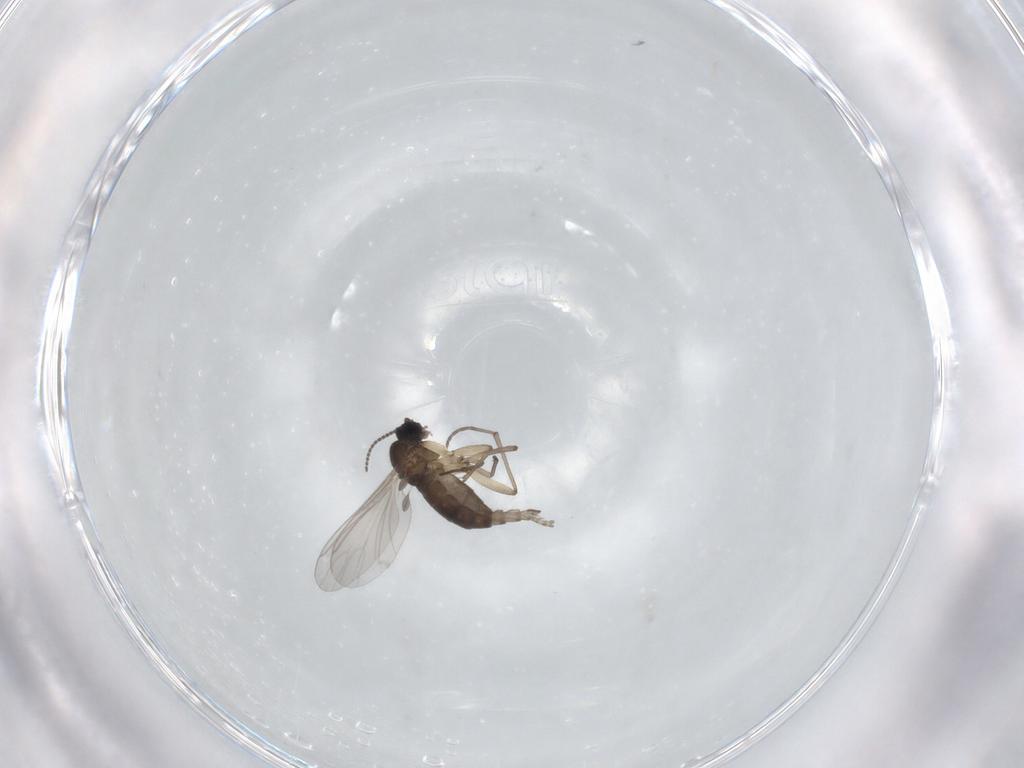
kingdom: Animalia
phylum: Arthropoda
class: Insecta
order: Diptera
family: Sciaridae
